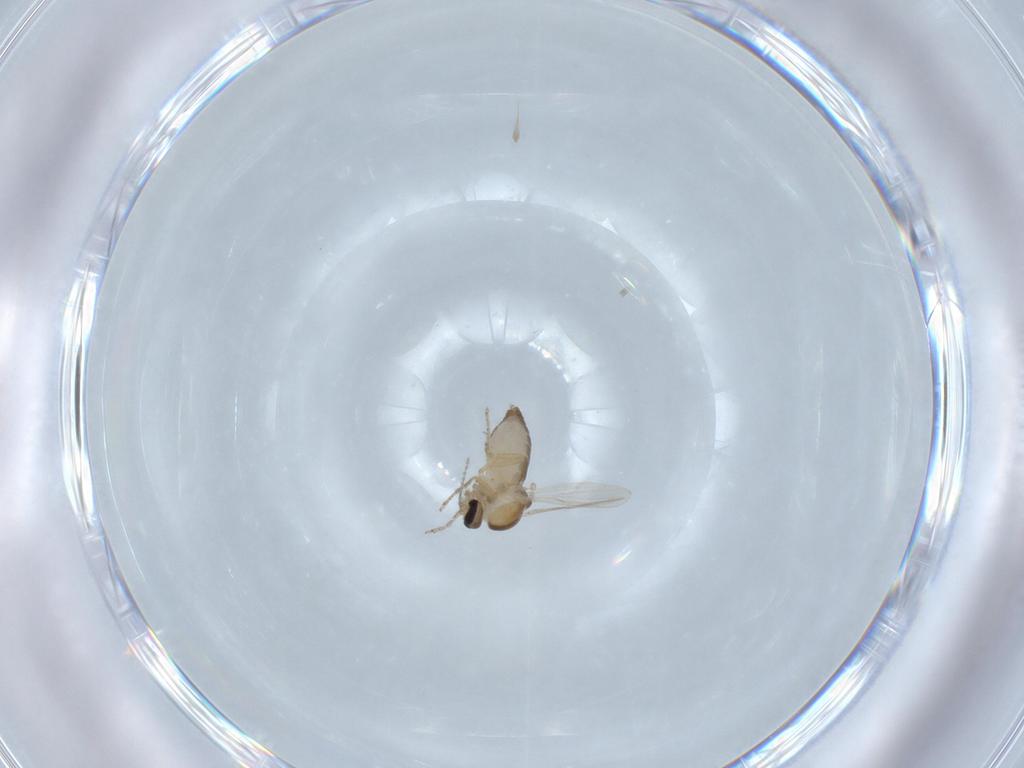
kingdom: Animalia
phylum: Arthropoda
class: Insecta
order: Diptera
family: Ceratopogonidae
